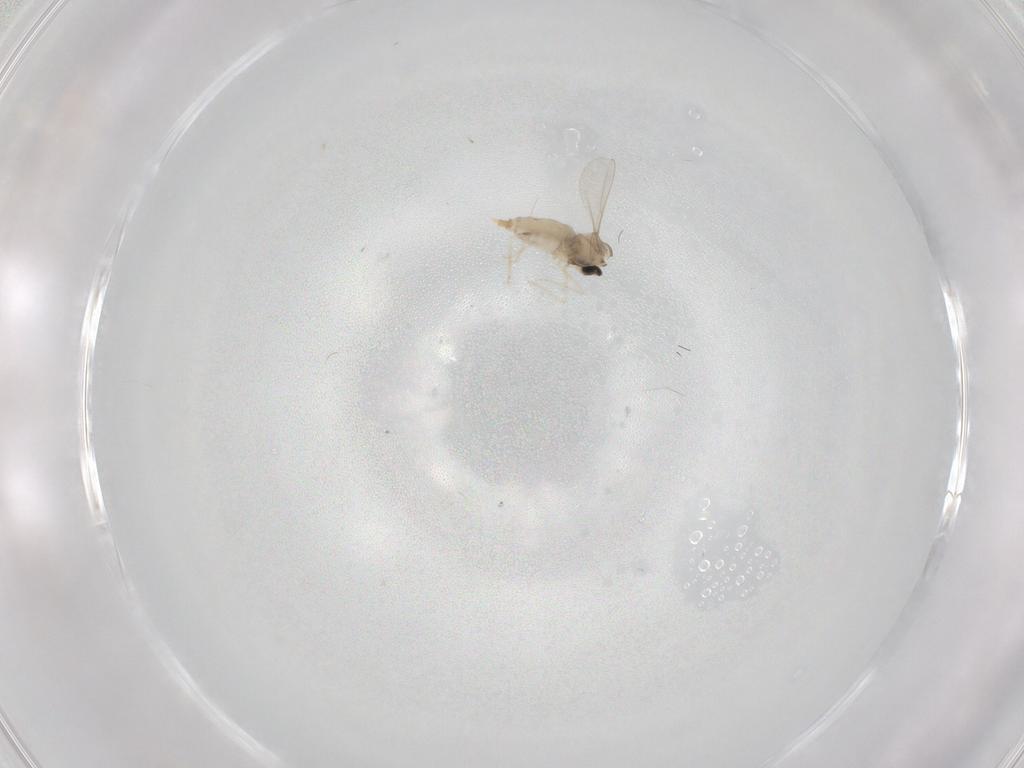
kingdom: Animalia
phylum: Arthropoda
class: Insecta
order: Diptera
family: Cecidomyiidae
